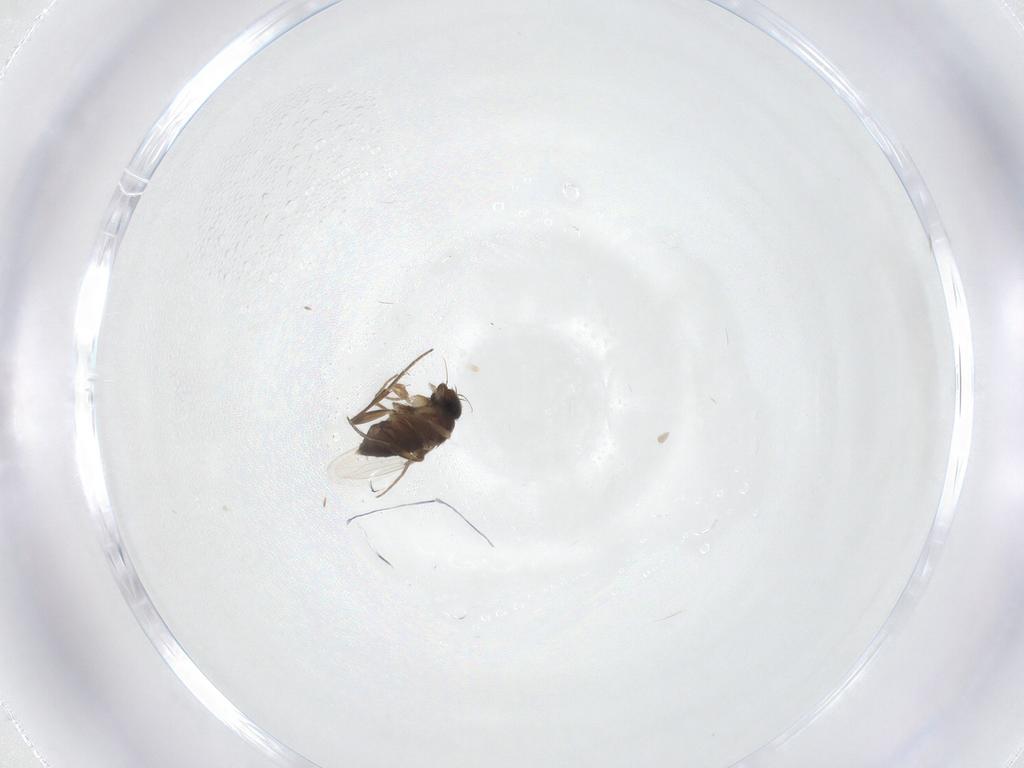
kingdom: Animalia
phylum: Arthropoda
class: Insecta
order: Diptera
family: Phoridae
